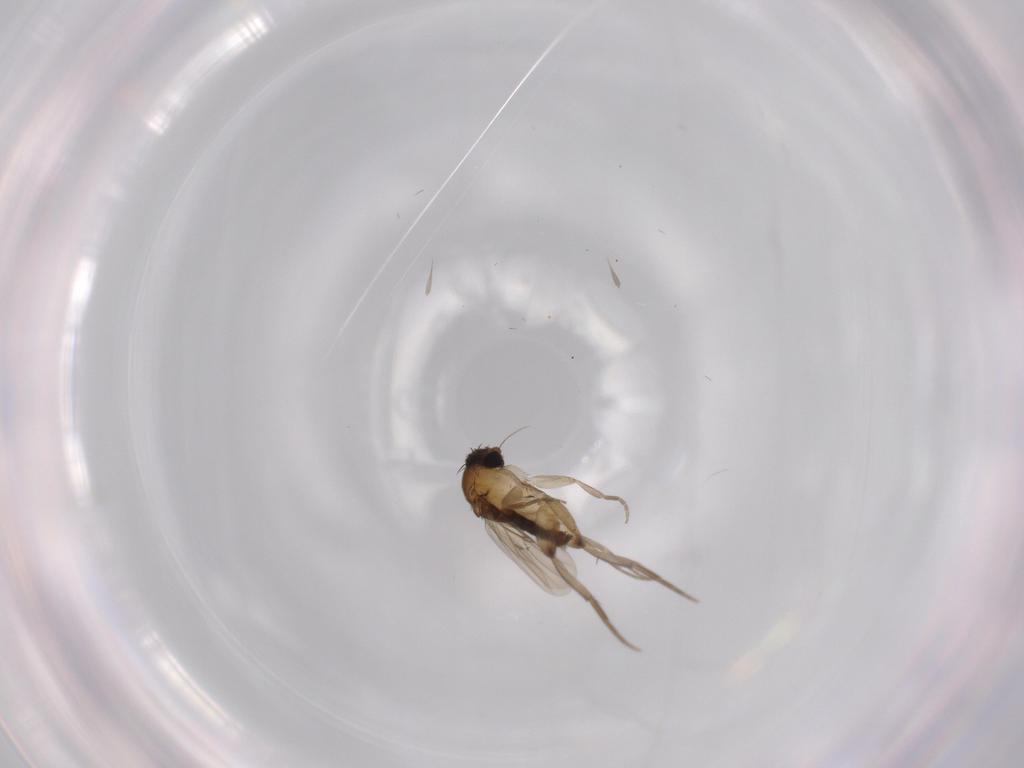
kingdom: Animalia
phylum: Arthropoda
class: Insecta
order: Diptera
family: Phoridae
